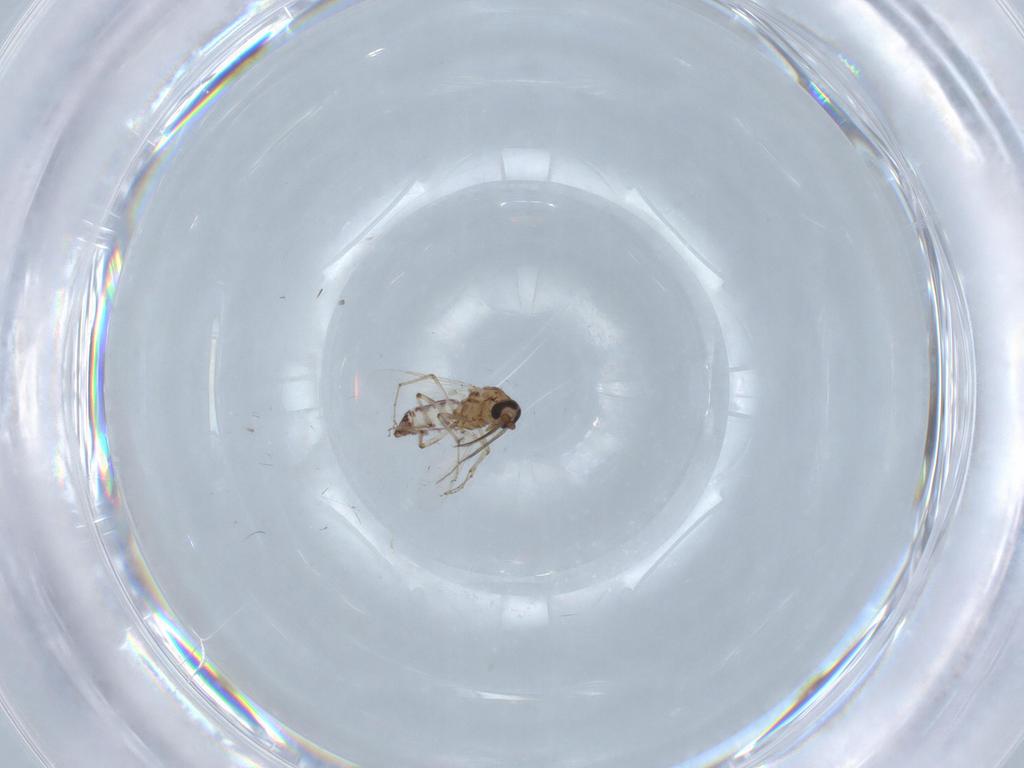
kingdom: Animalia
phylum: Arthropoda
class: Insecta
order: Diptera
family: Ceratopogonidae
